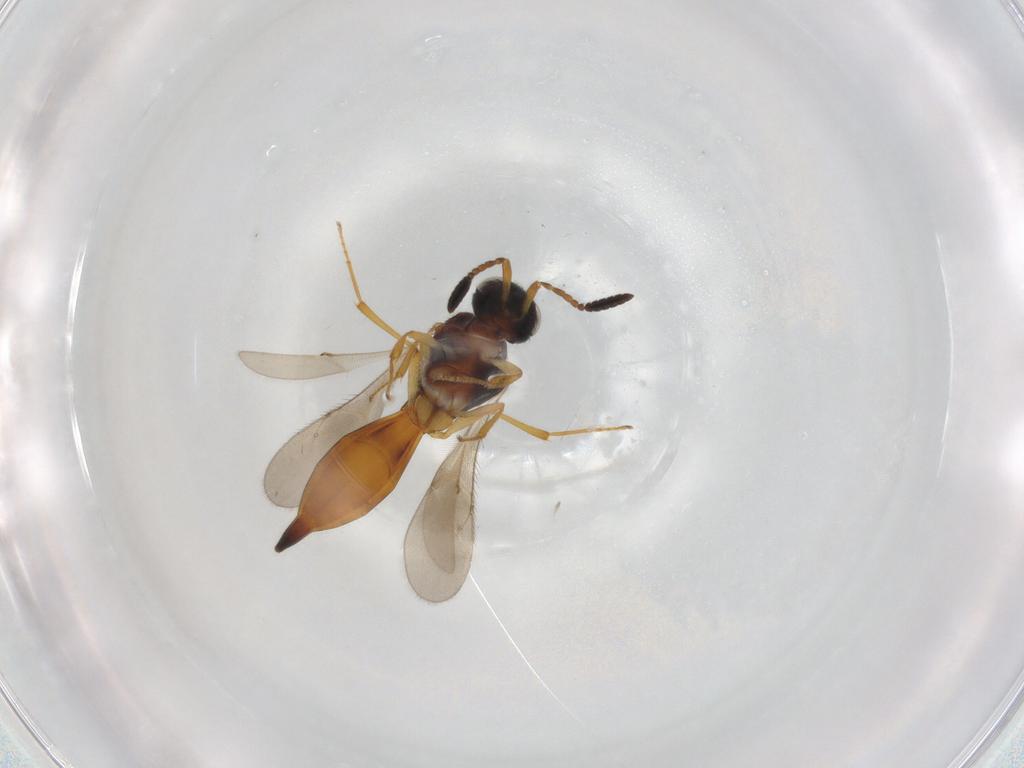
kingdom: Animalia
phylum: Arthropoda
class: Insecta
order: Hymenoptera
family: Scelionidae
